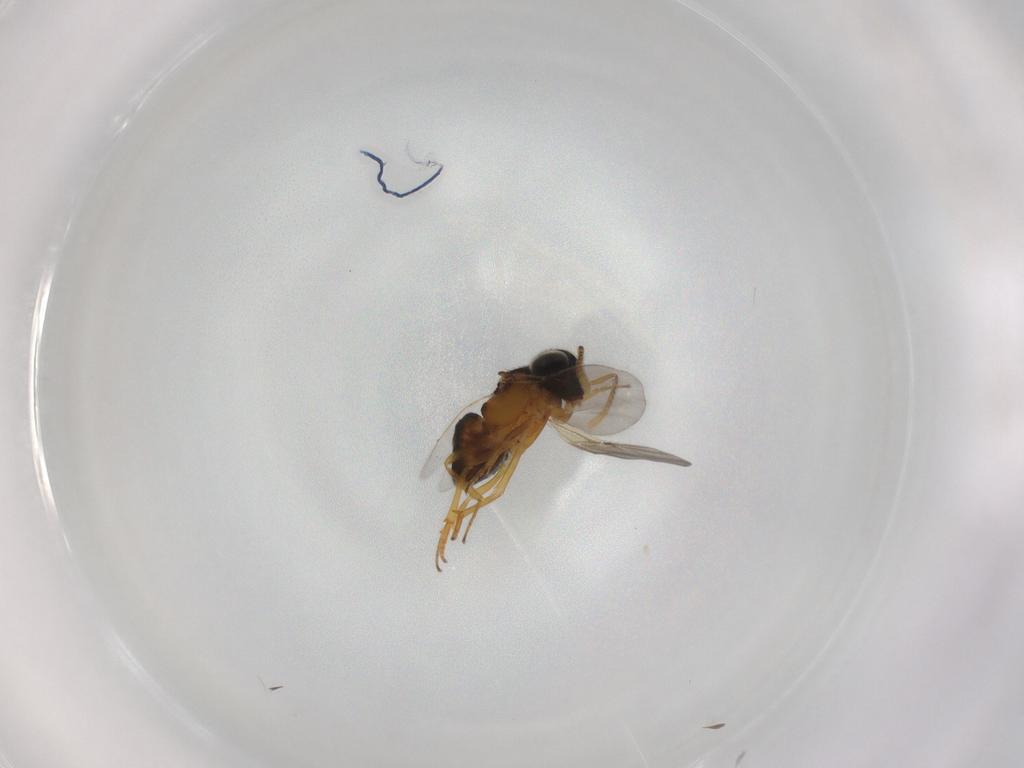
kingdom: Animalia
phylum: Arthropoda
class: Insecta
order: Hymenoptera
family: Formicidae
